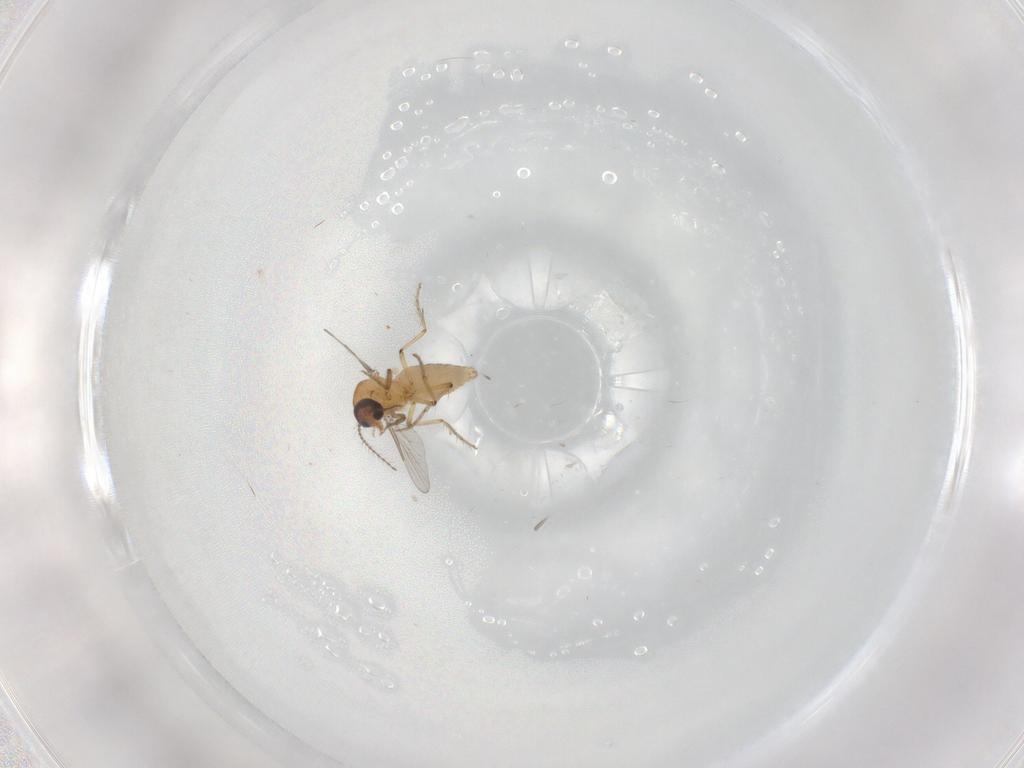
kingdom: Animalia
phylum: Arthropoda
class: Insecta
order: Diptera
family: Ceratopogonidae
